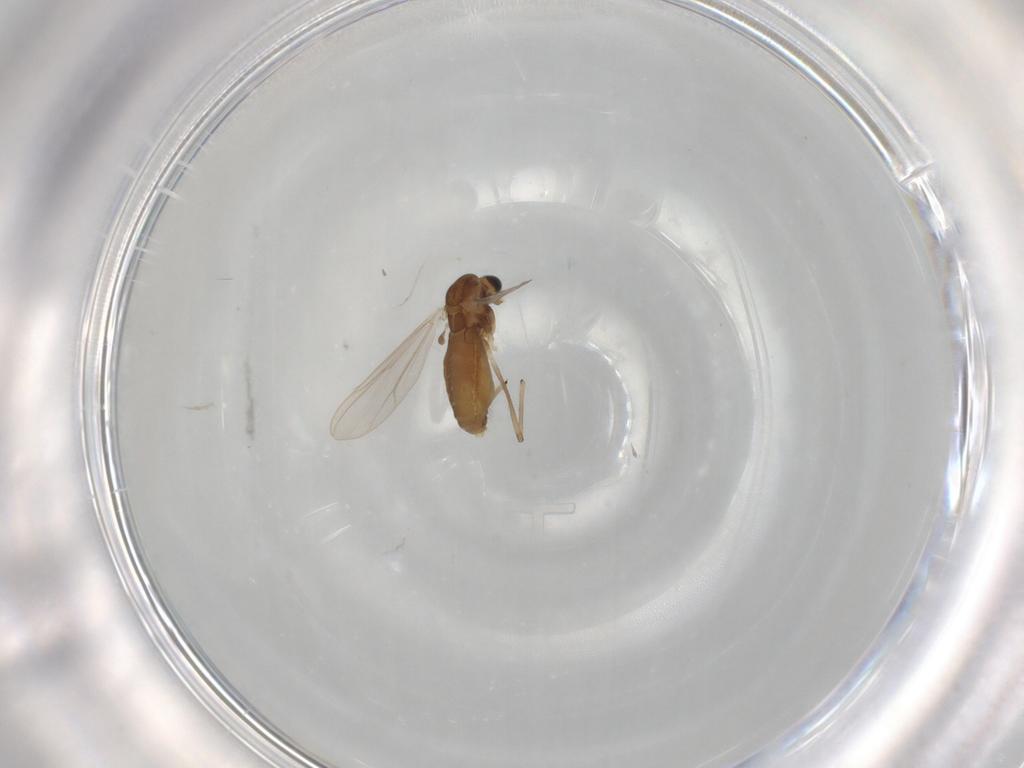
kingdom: Animalia
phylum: Arthropoda
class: Insecta
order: Diptera
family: Chironomidae
